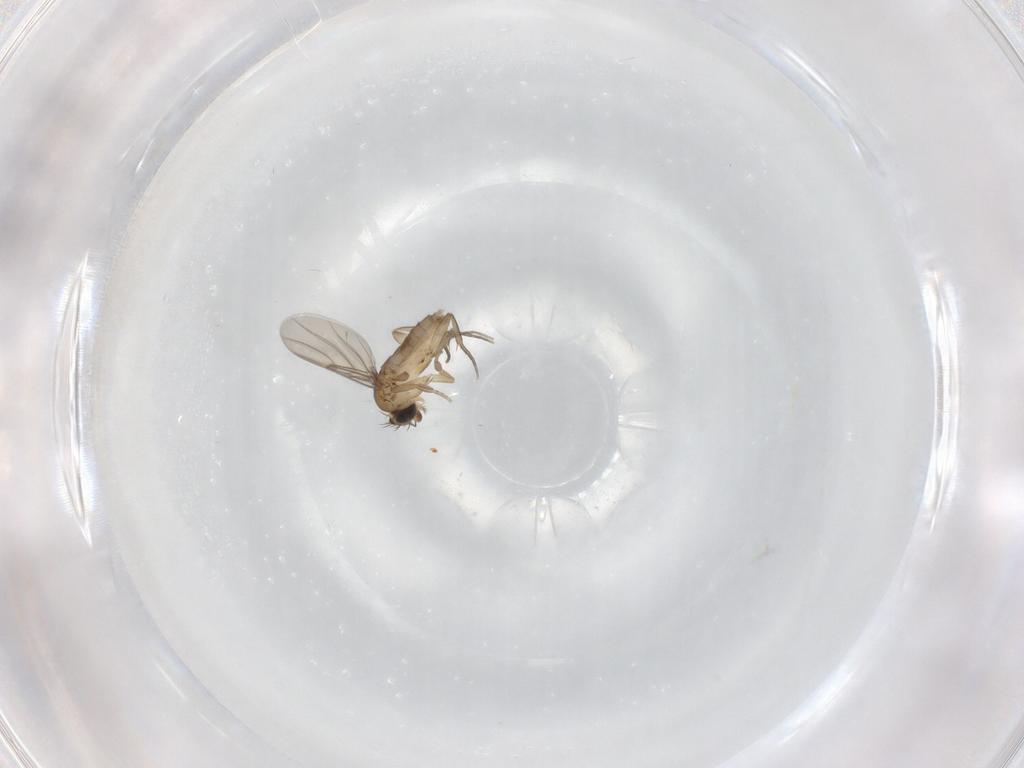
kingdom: Animalia
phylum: Arthropoda
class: Insecta
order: Diptera
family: Phoridae
